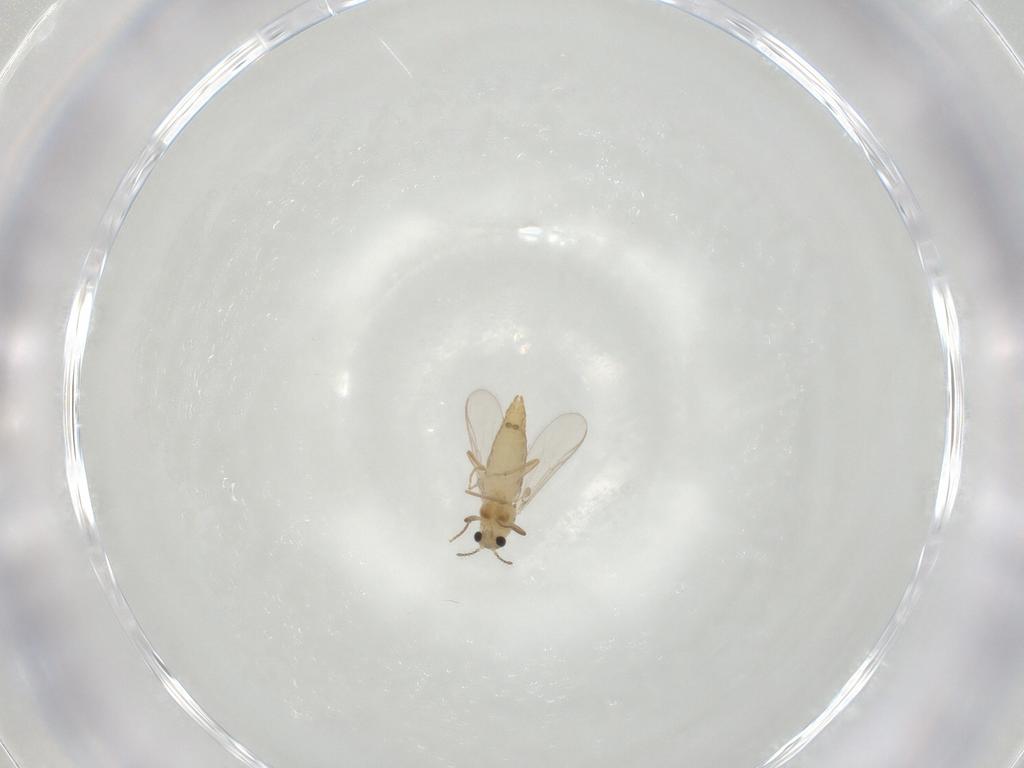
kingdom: Animalia
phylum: Arthropoda
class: Insecta
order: Diptera
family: Chironomidae
